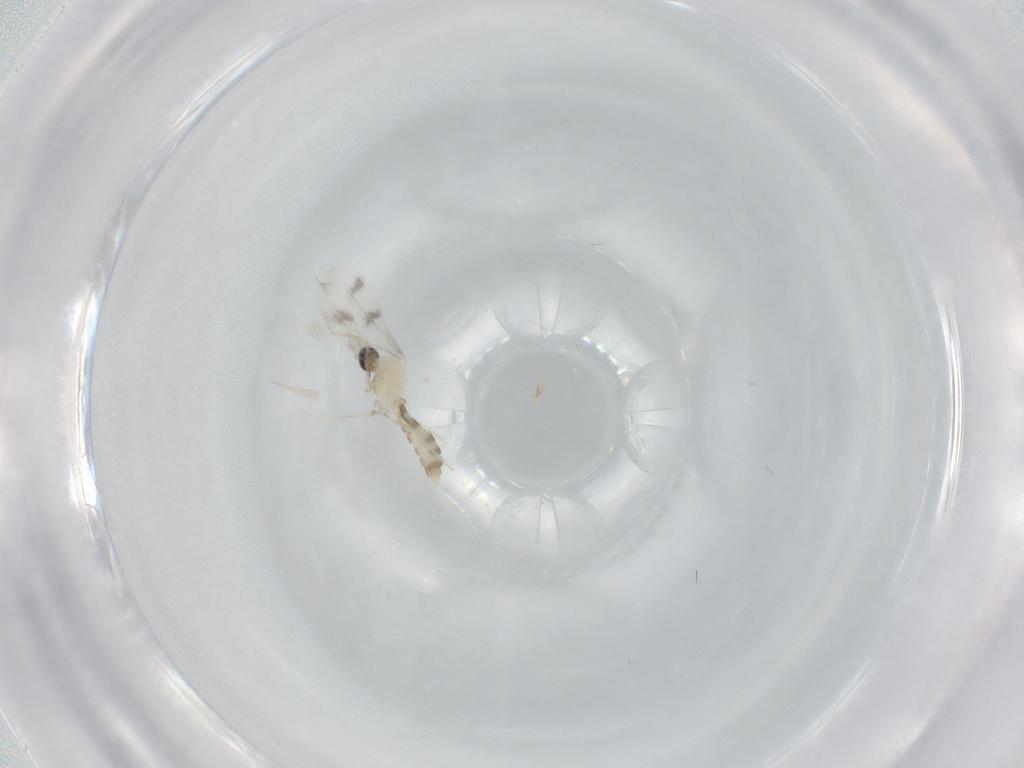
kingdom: Animalia
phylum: Arthropoda
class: Insecta
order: Diptera
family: Cecidomyiidae
